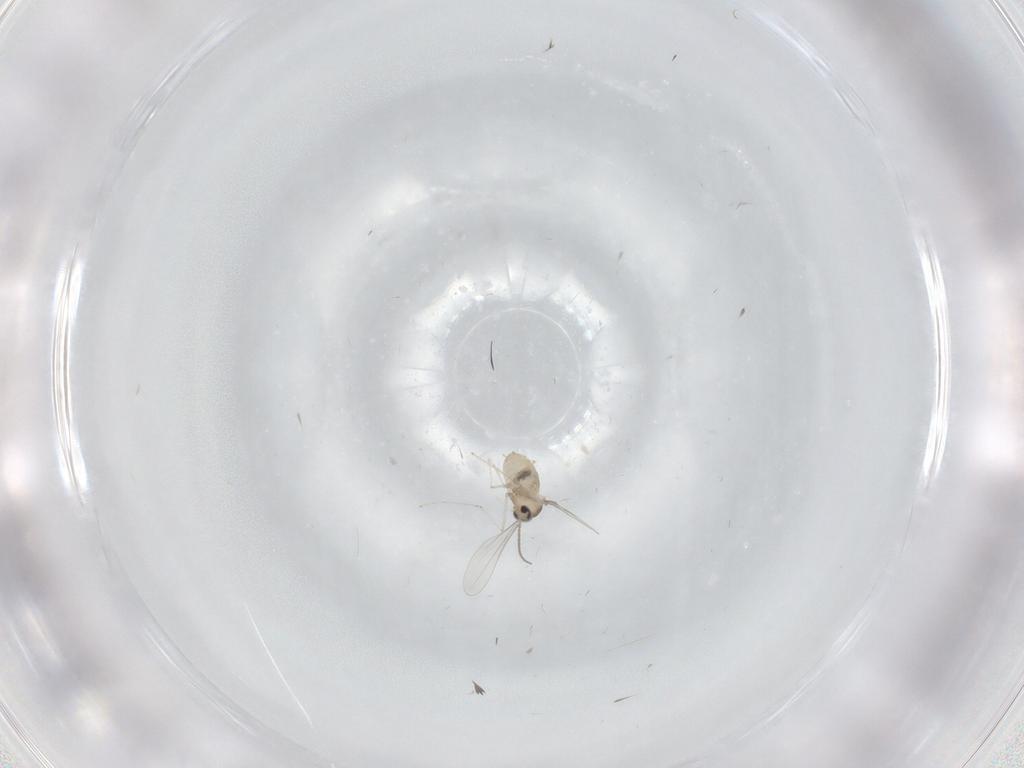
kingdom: Animalia
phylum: Arthropoda
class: Insecta
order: Diptera
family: Cecidomyiidae
